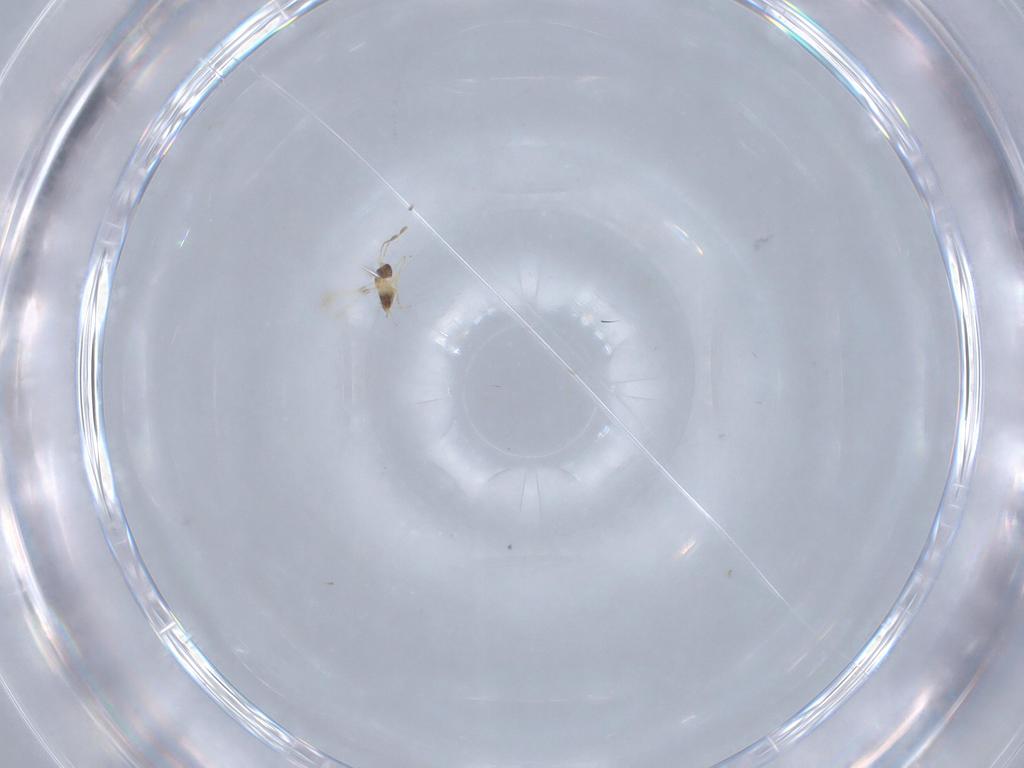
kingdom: Animalia
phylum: Arthropoda
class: Insecta
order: Hymenoptera
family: Mymaridae
